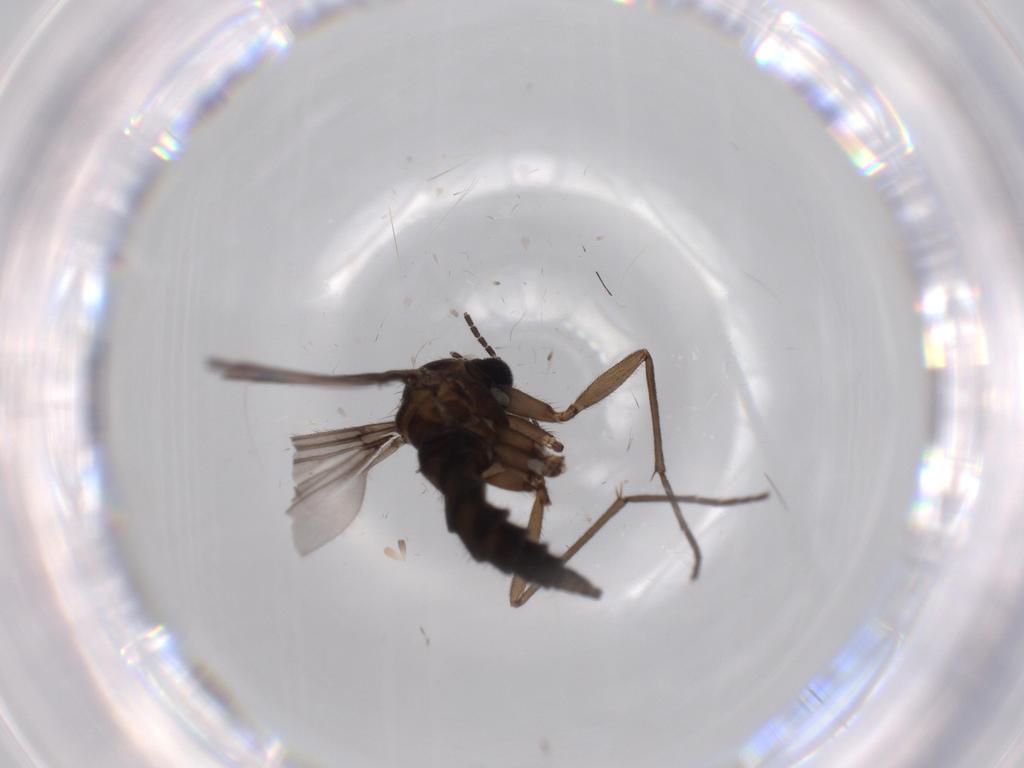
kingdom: Animalia
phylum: Arthropoda
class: Insecta
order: Diptera
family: Sciaridae
